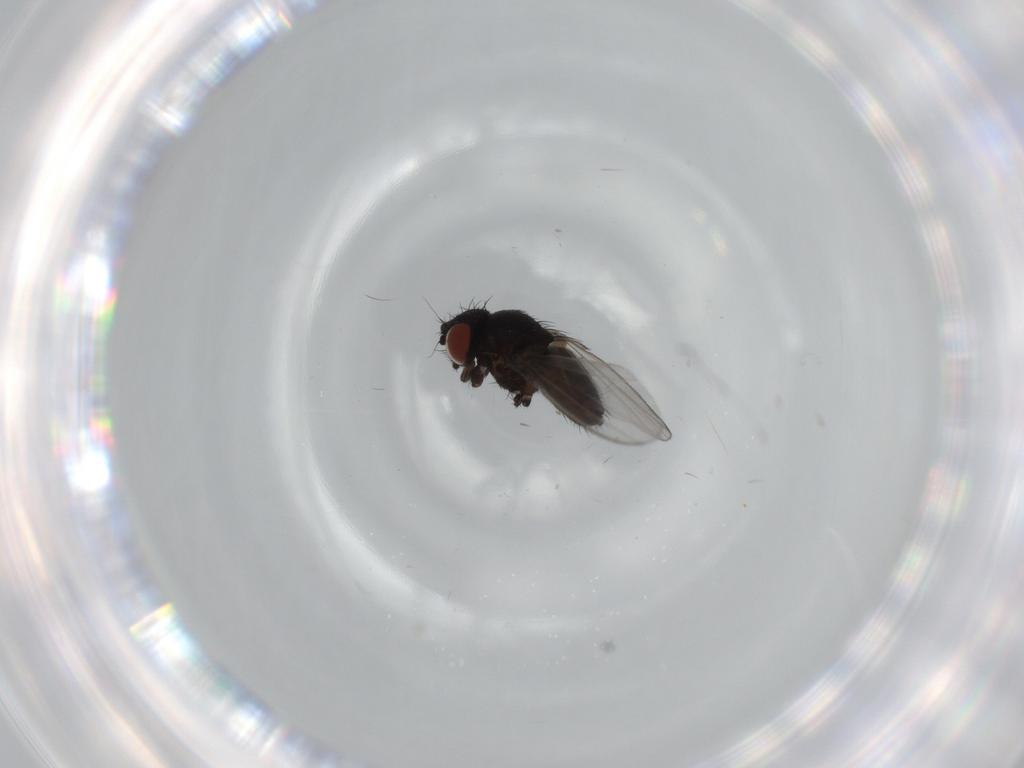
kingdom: Animalia
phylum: Arthropoda
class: Insecta
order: Diptera
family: Milichiidae
